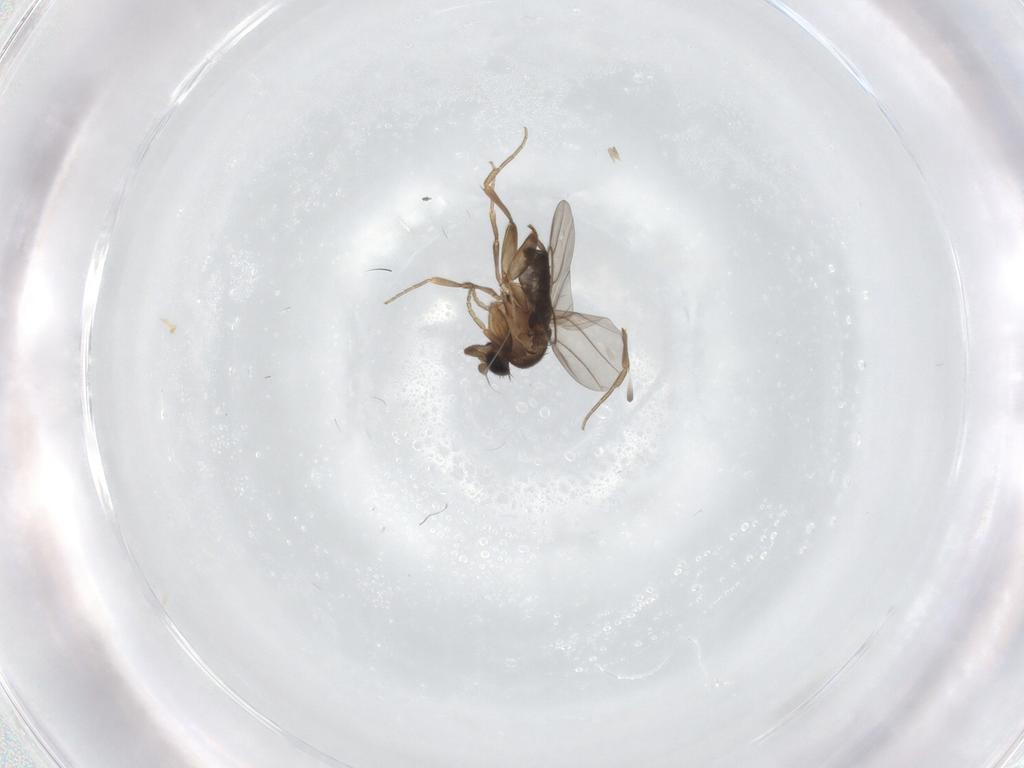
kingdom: Animalia
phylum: Arthropoda
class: Insecta
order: Diptera
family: Phoridae
